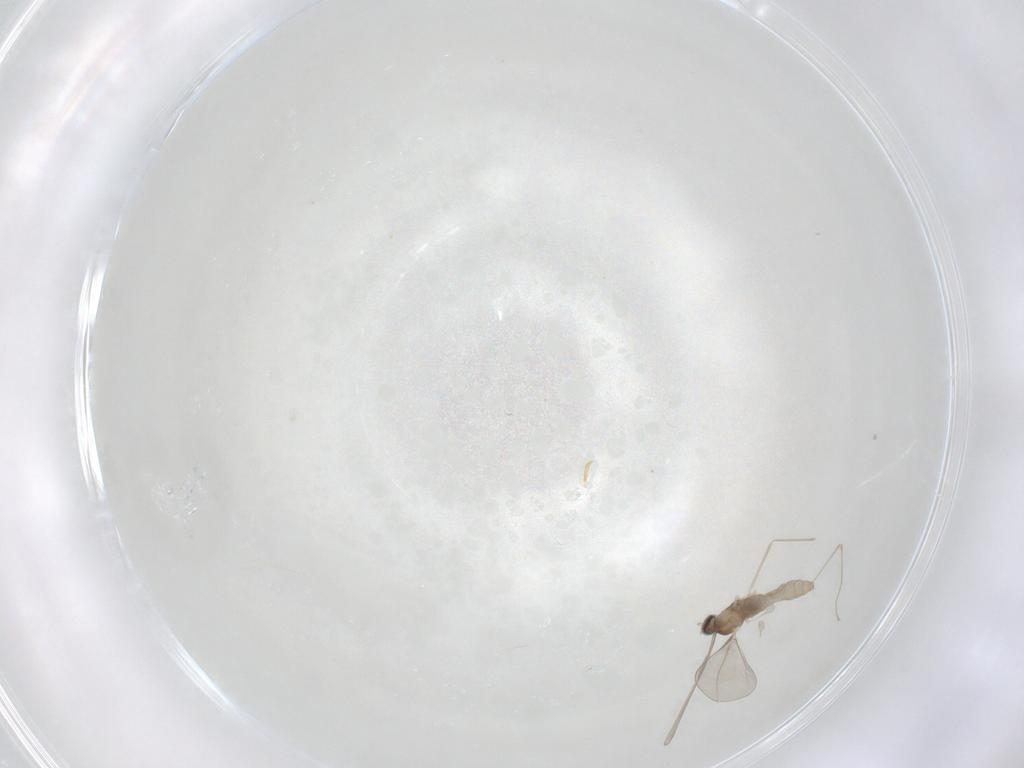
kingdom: Animalia
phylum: Arthropoda
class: Insecta
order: Diptera
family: Cecidomyiidae
